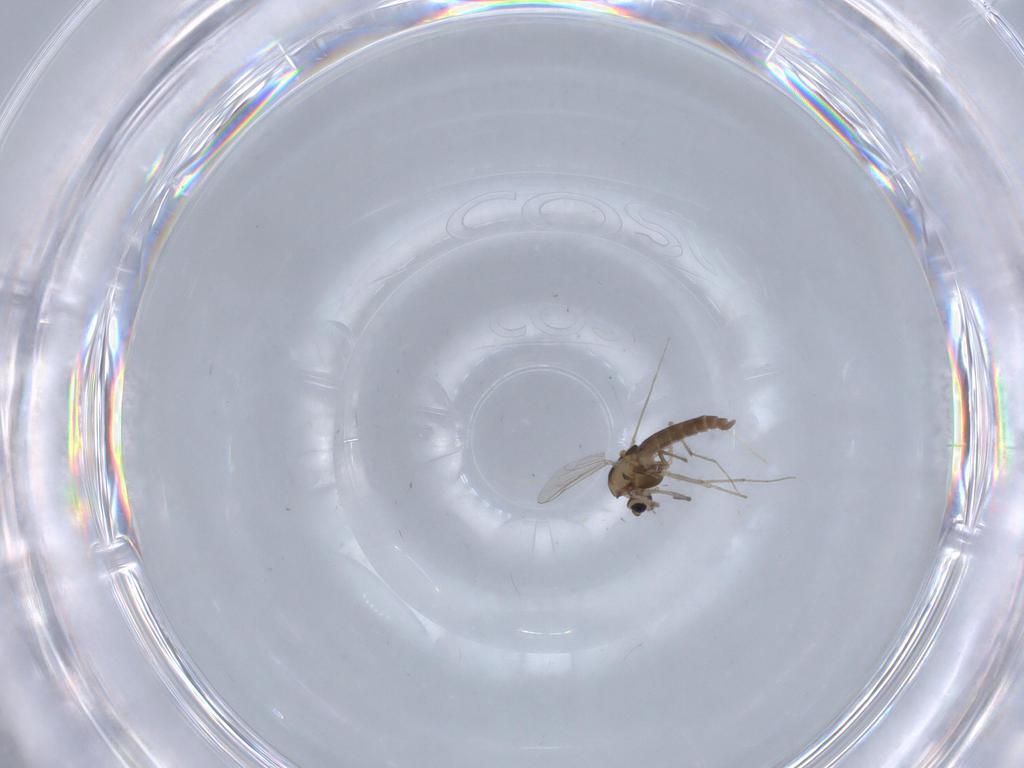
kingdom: Animalia
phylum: Arthropoda
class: Insecta
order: Diptera
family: Chironomidae
